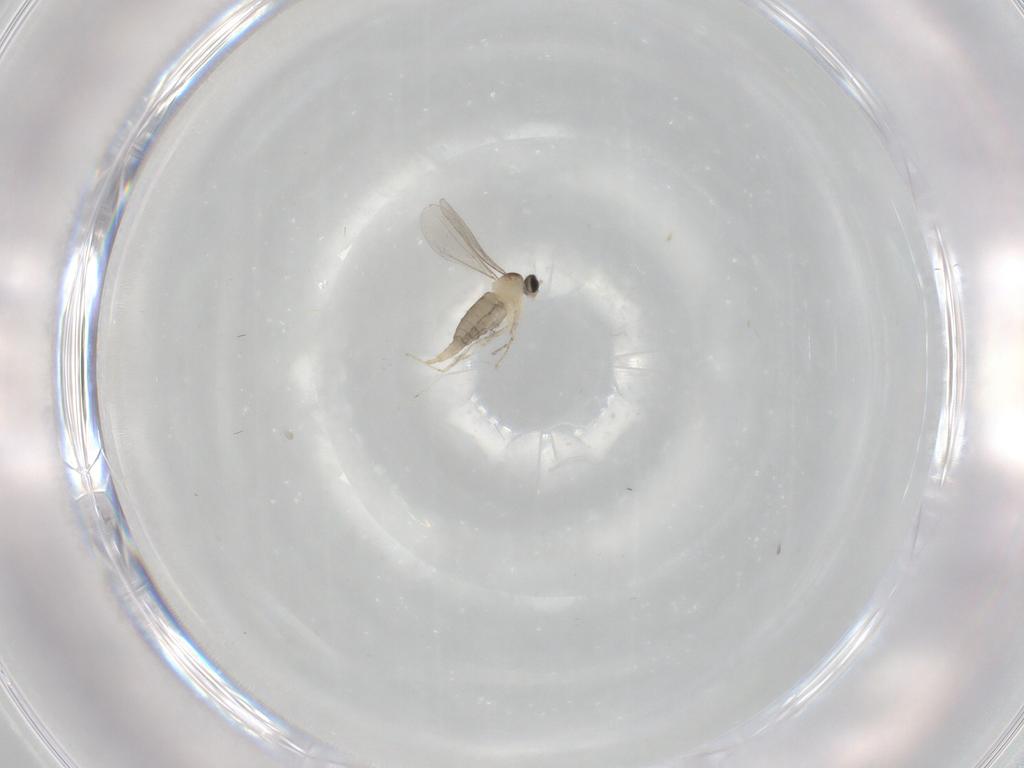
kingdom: Animalia
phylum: Arthropoda
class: Insecta
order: Diptera
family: Cecidomyiidae
